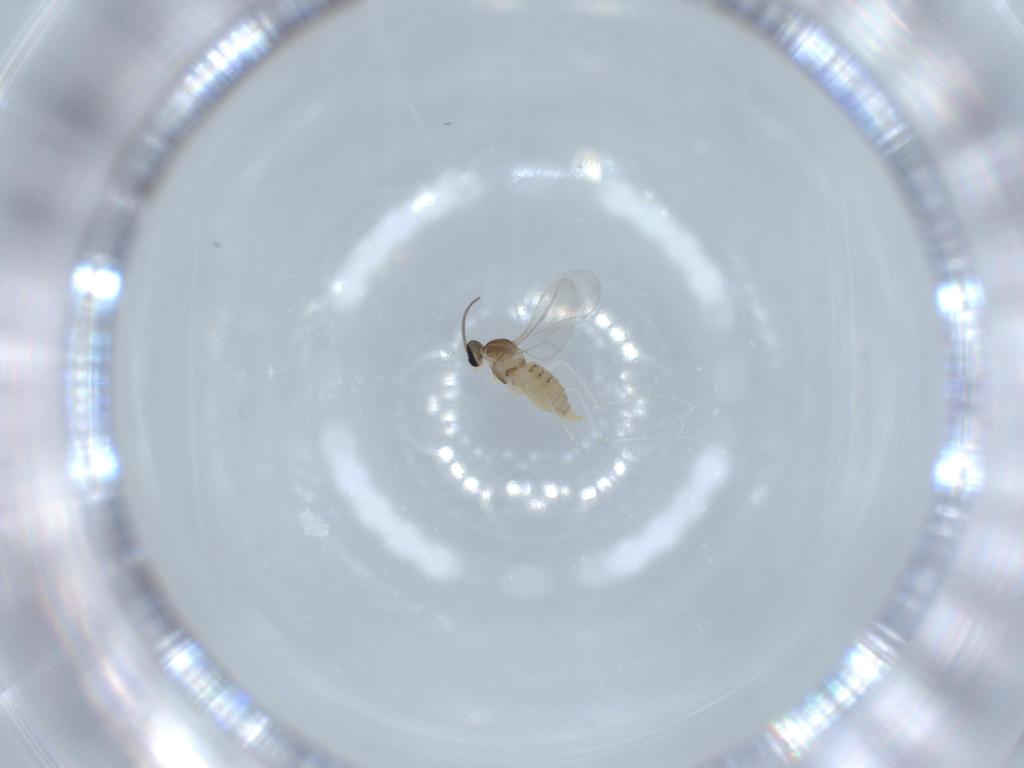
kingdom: Animalia
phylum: Arthropoda
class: Insecta
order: Diptera
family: Cecidomyiidae
